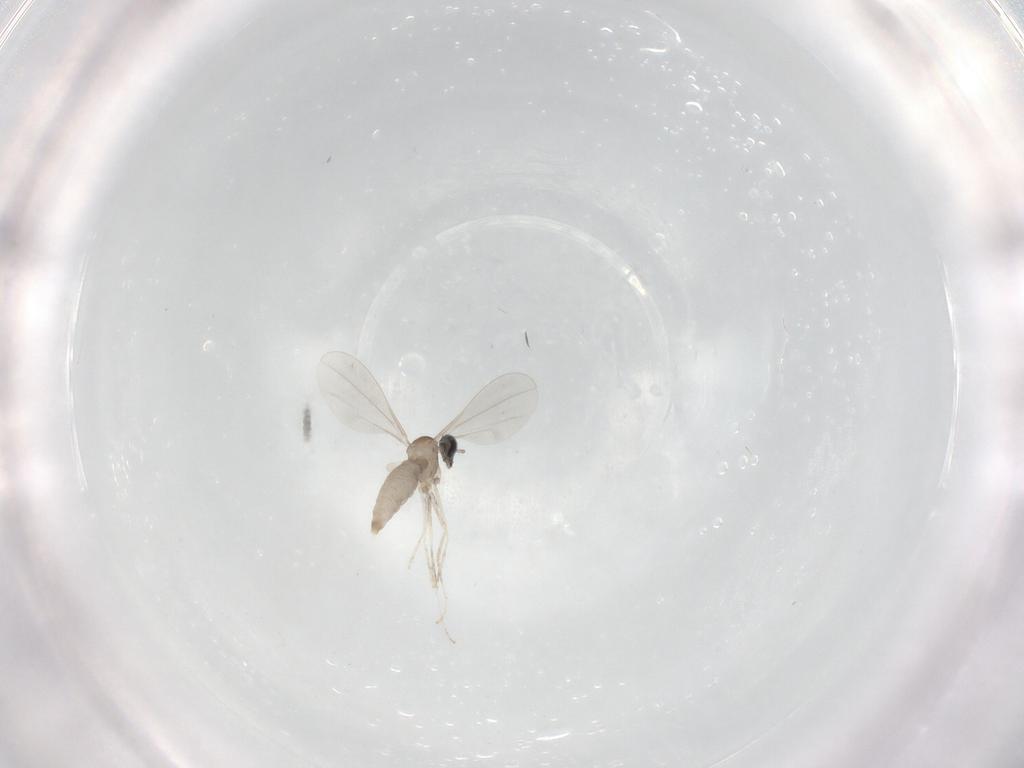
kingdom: Animalia
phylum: Arthropoda
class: Insecta
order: Diptera
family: Cecidomyiidae
